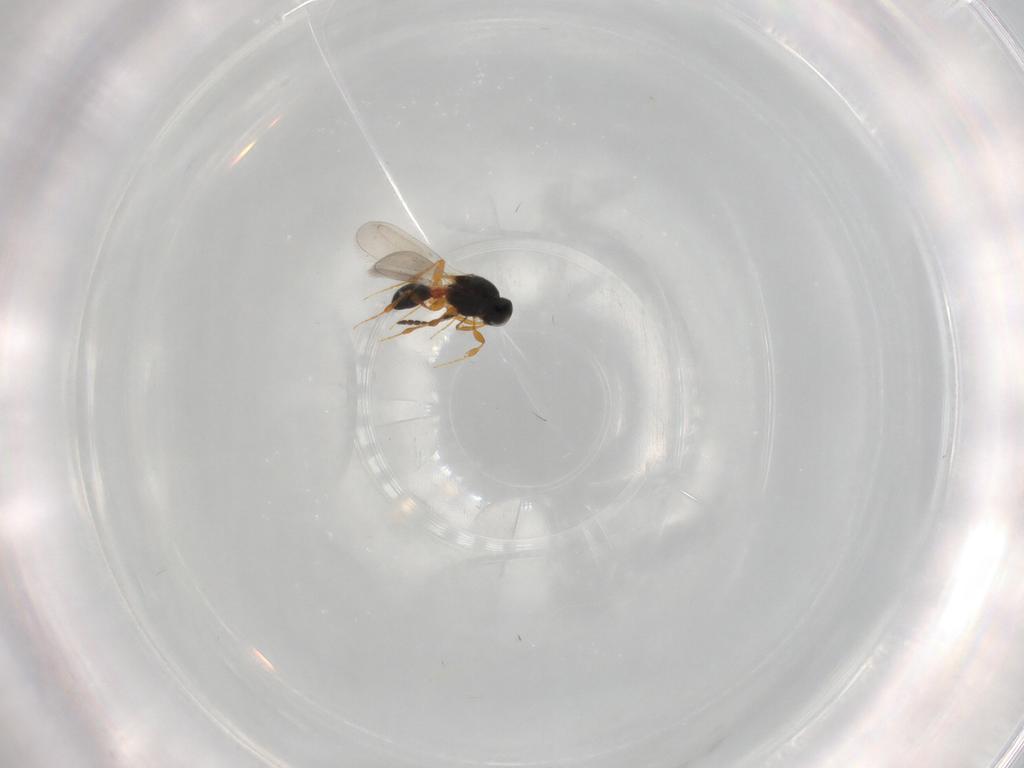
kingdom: Animalia
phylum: Arthropoda
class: Insecta
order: Hymenoptera
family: Platygastridae
